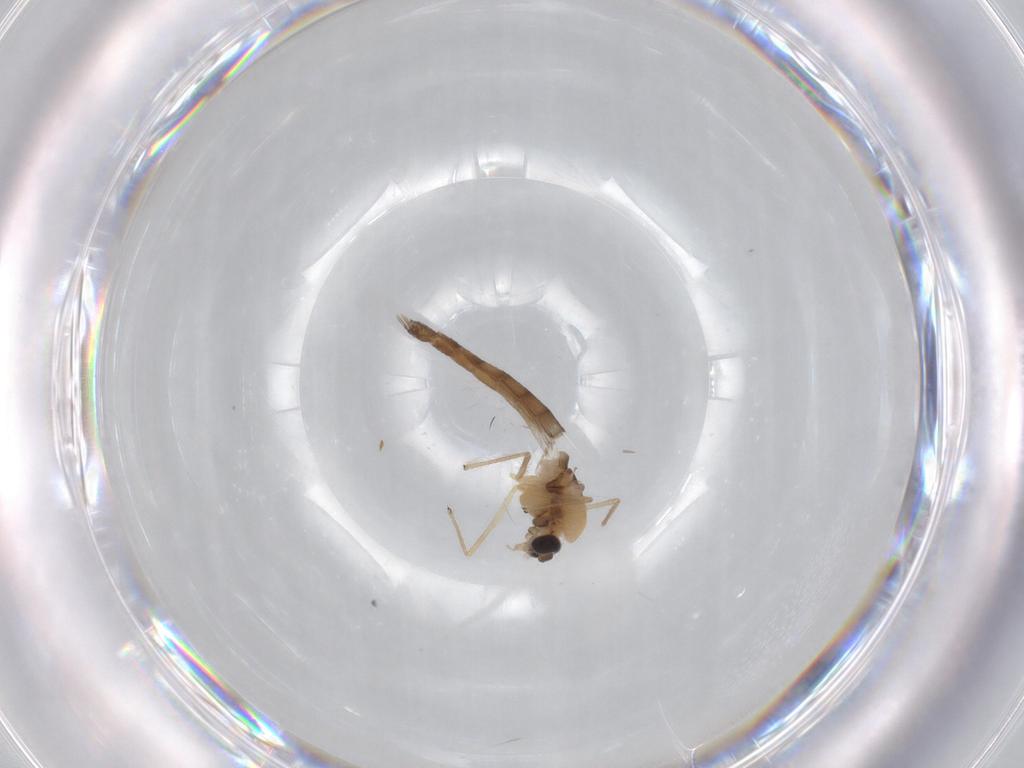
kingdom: Animalia
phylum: Arthropoda
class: Insecta
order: Diptera
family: Chironomidae
